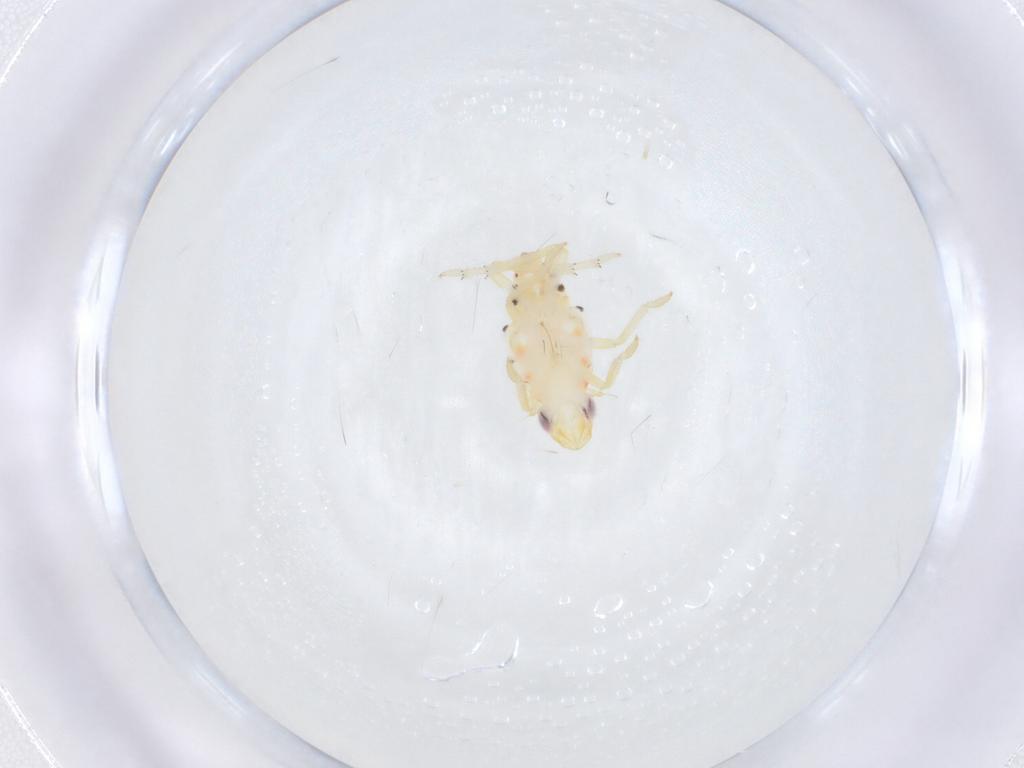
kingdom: Animalia
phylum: Arthropoda
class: Insecta
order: Hemiptera
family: Tropiduchidae
